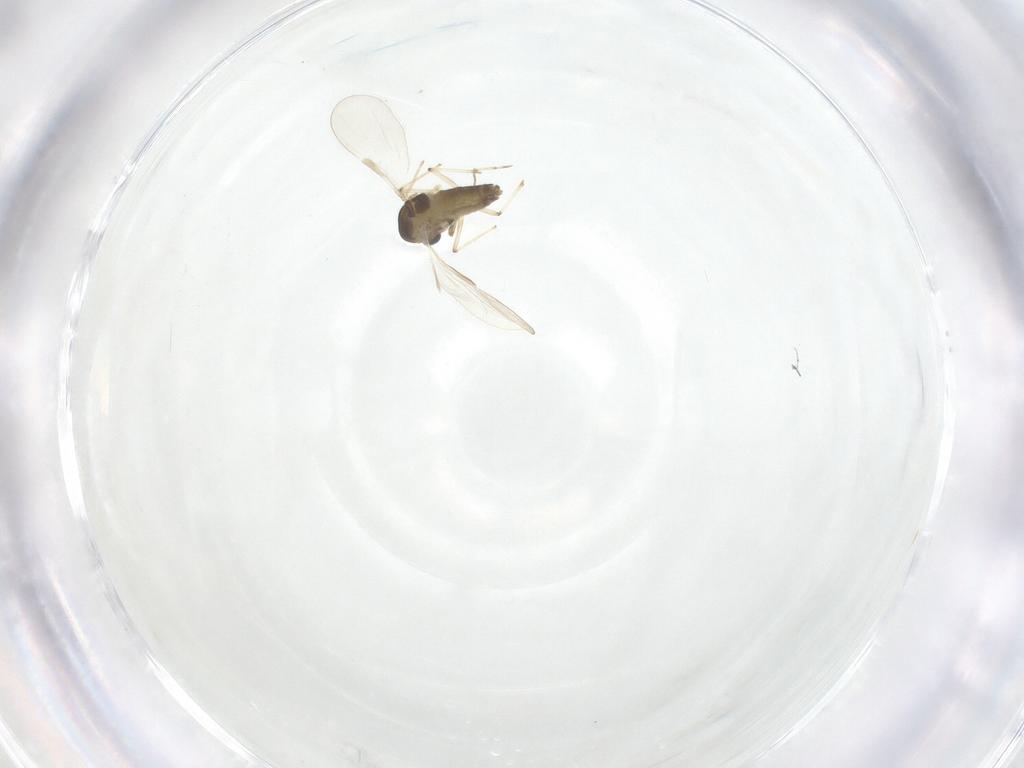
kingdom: Animalia
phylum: Arthropoda
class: Insecta
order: Diptera
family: Chironomidae
